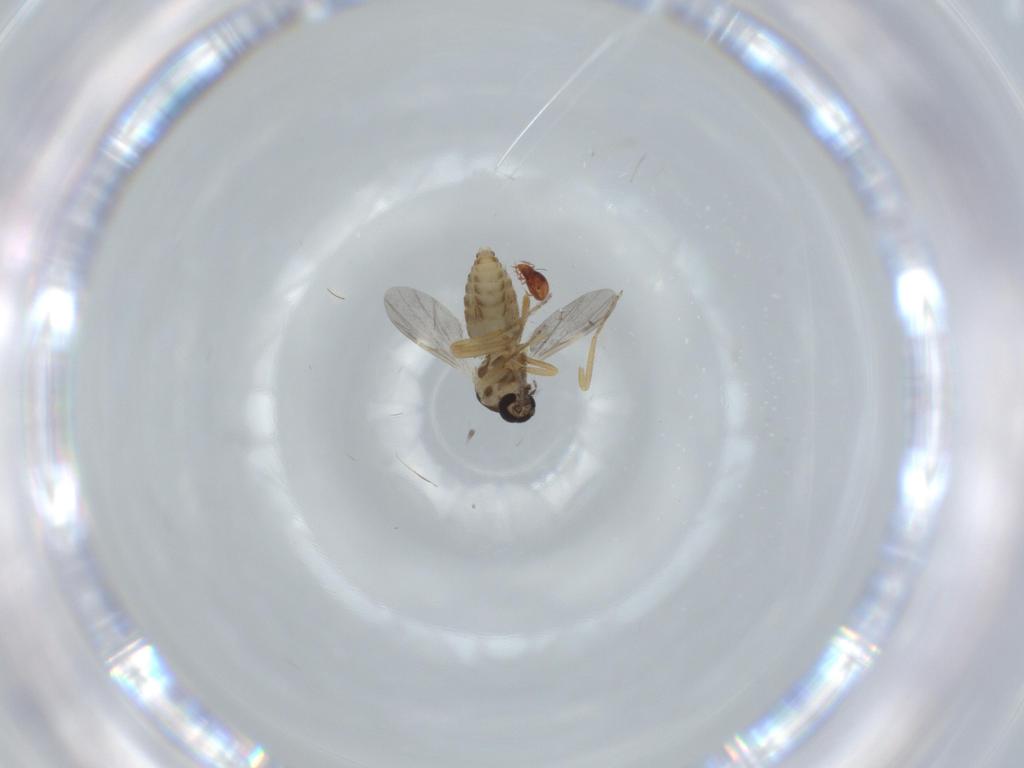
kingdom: Animalia
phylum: Arthropoda
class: Insecta
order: Diptera
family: Ceratopogonidae
